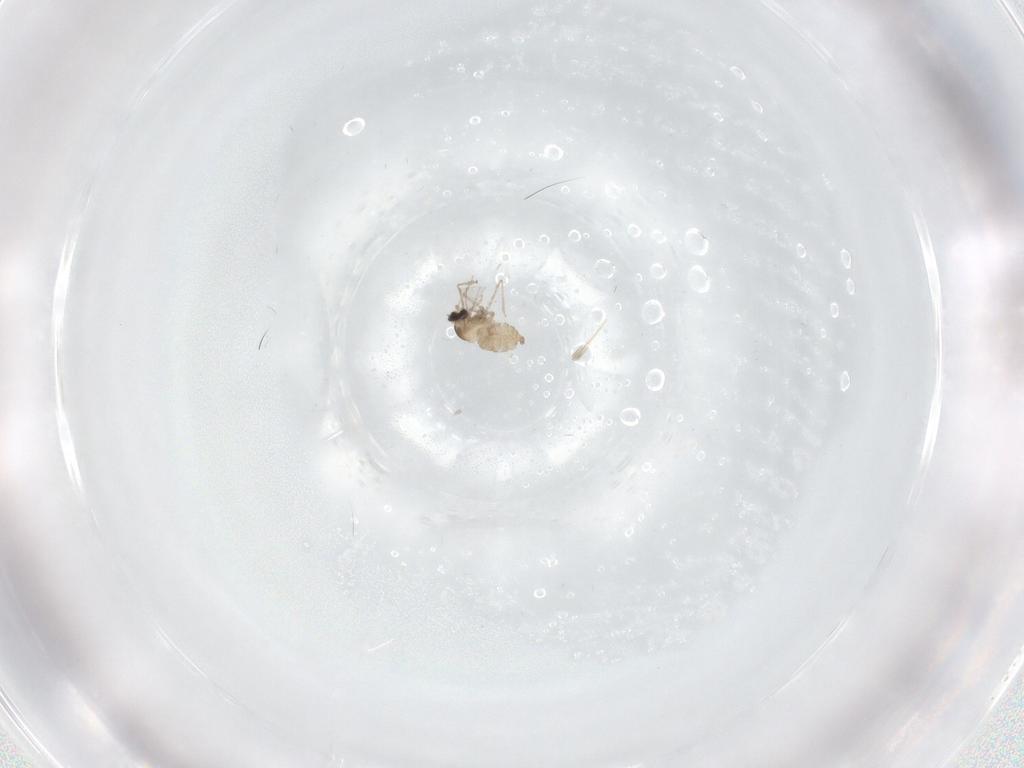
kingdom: Animalia
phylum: Arthropoda
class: Insecta
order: Diptera
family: Cecidomyiidae
